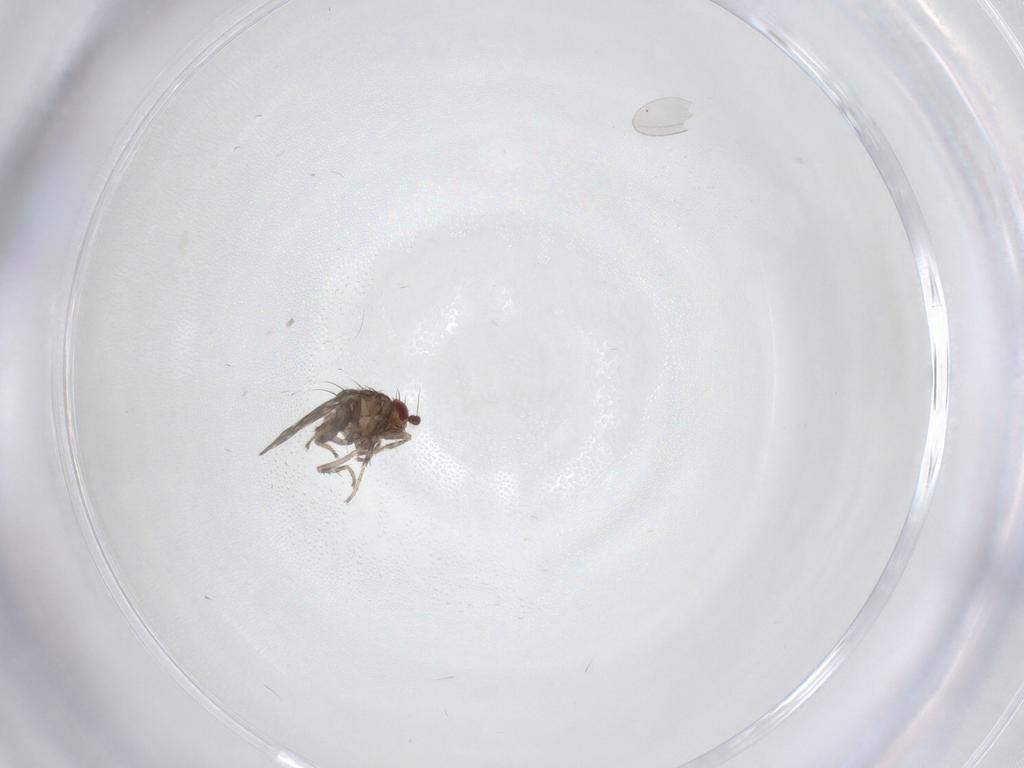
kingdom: Animalia
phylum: Arthropoda
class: Insecta
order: Diptera
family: Sphaeroceridae
